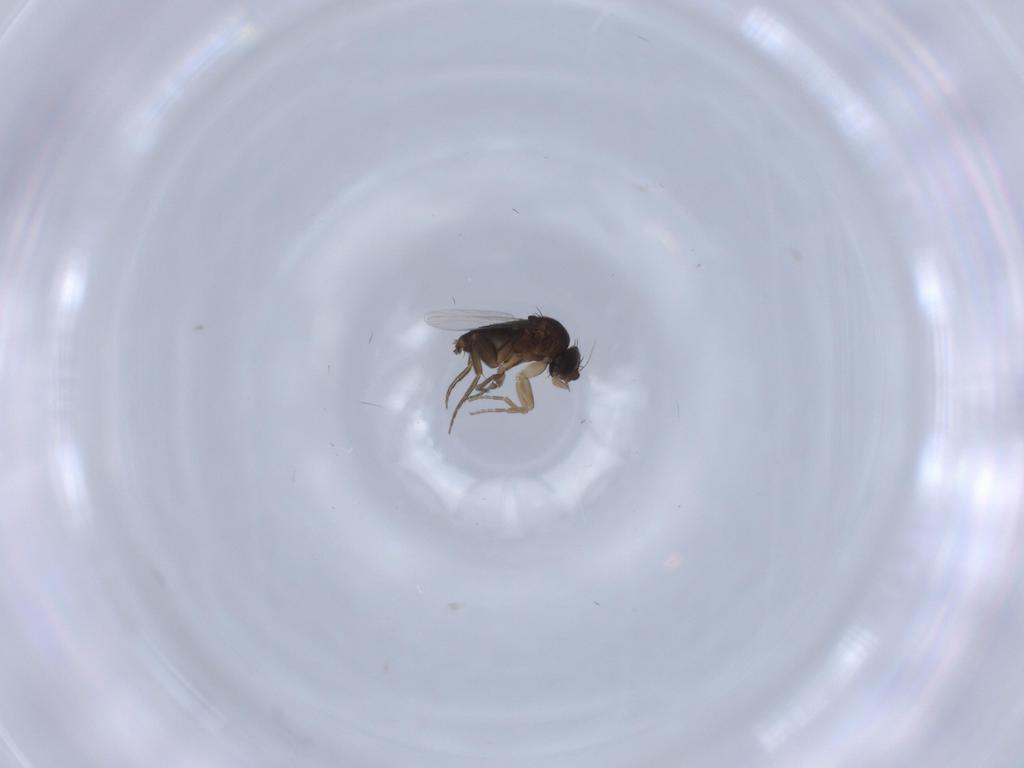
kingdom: Animalia
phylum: Arthropoda
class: Insecta
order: Diptera
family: Phoridae
